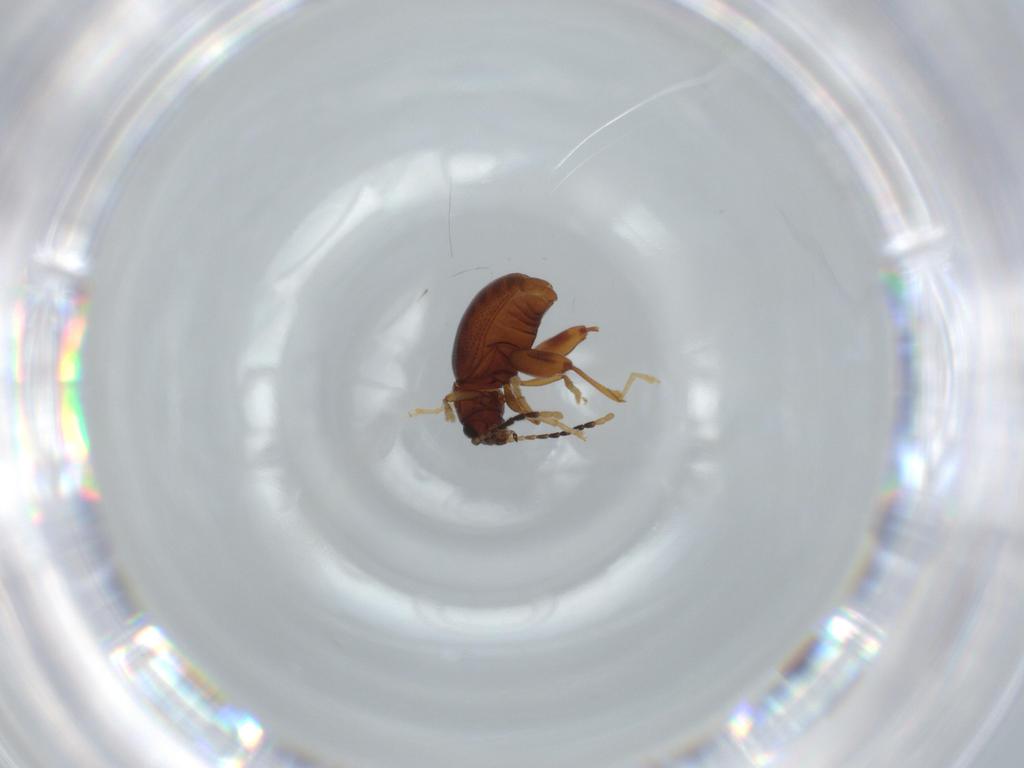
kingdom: Animalia
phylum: Arthropoda
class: Insecta
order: Coleoptera
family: Chrysomelidae
